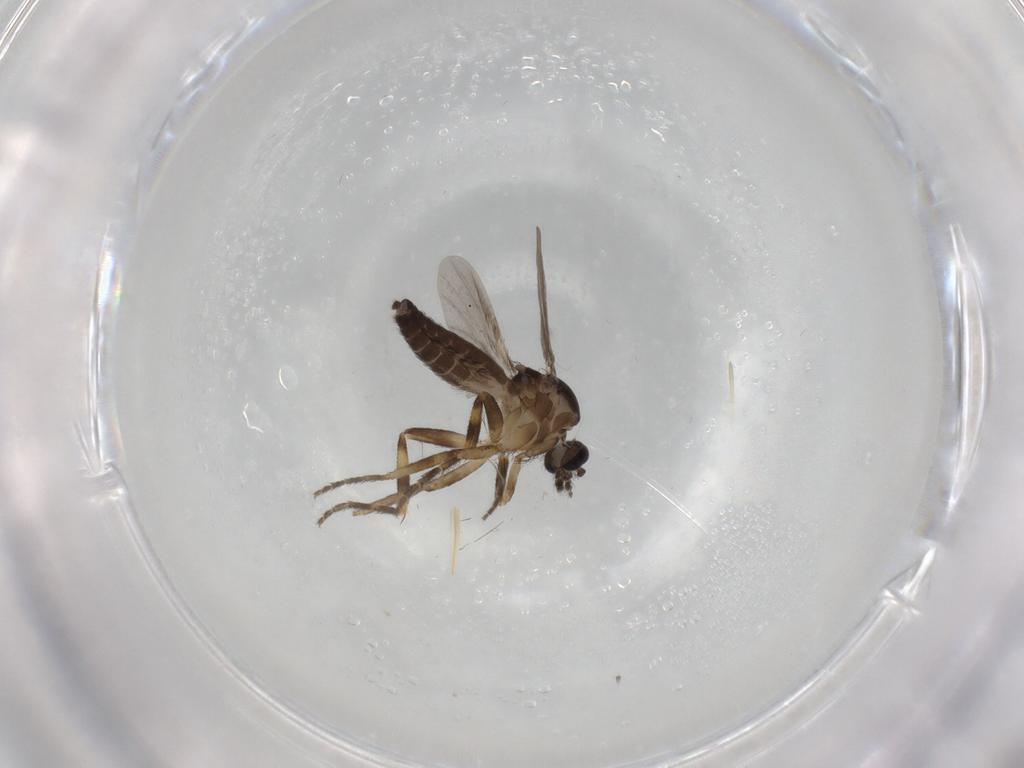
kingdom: Animalia
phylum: Arthropoda
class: Insecta
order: Diptera
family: Ceratopogonidae
